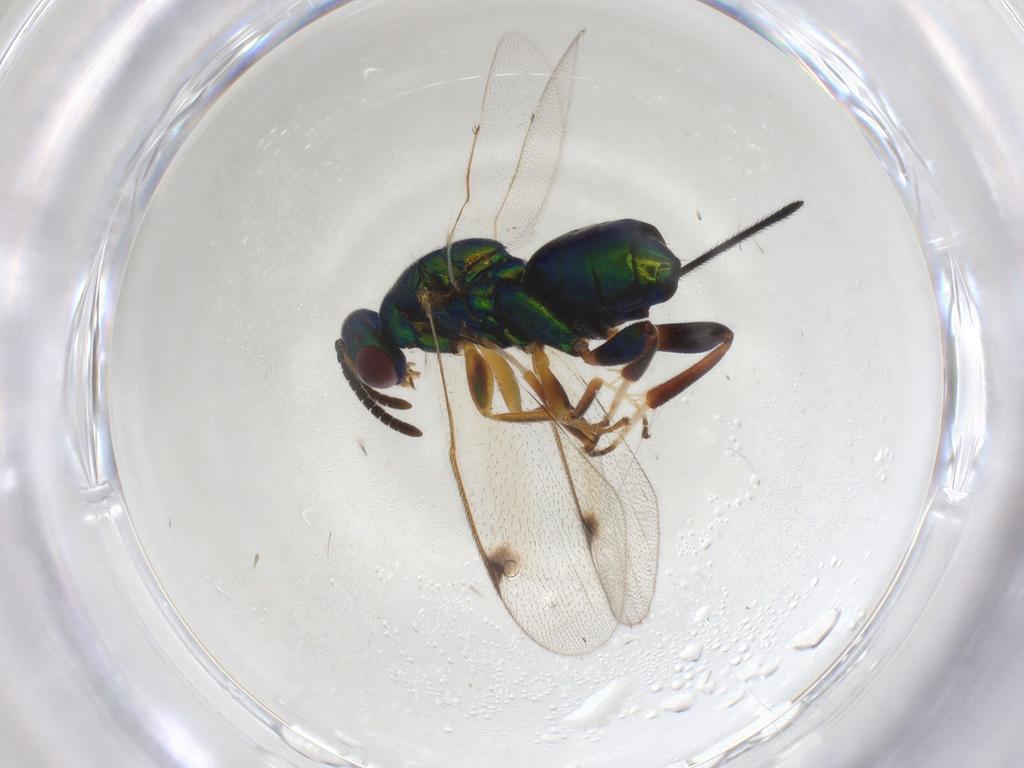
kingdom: Animalia
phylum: Arthropoda
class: Insecta
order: Hymenoptera
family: Torymidae
